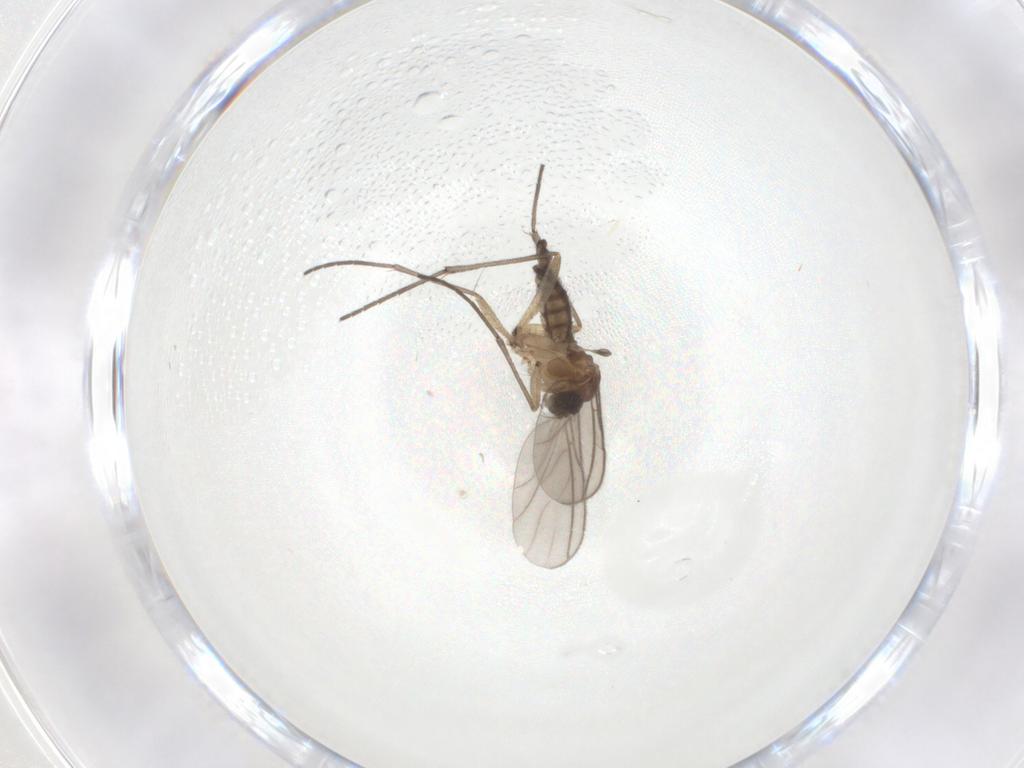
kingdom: Animalia
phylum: Arthropoda
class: Insecta
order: Diptera
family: Sciaridae
